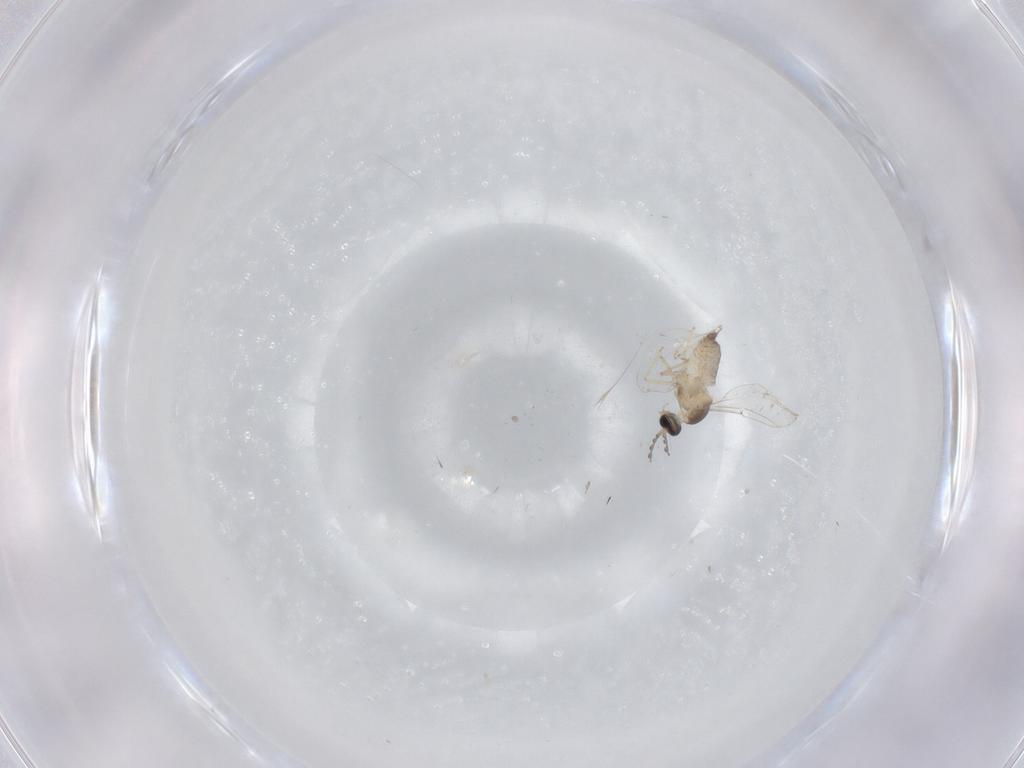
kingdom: Animalia
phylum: Arthropoda
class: Insecta
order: Diptera
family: Cecidomyiidae
